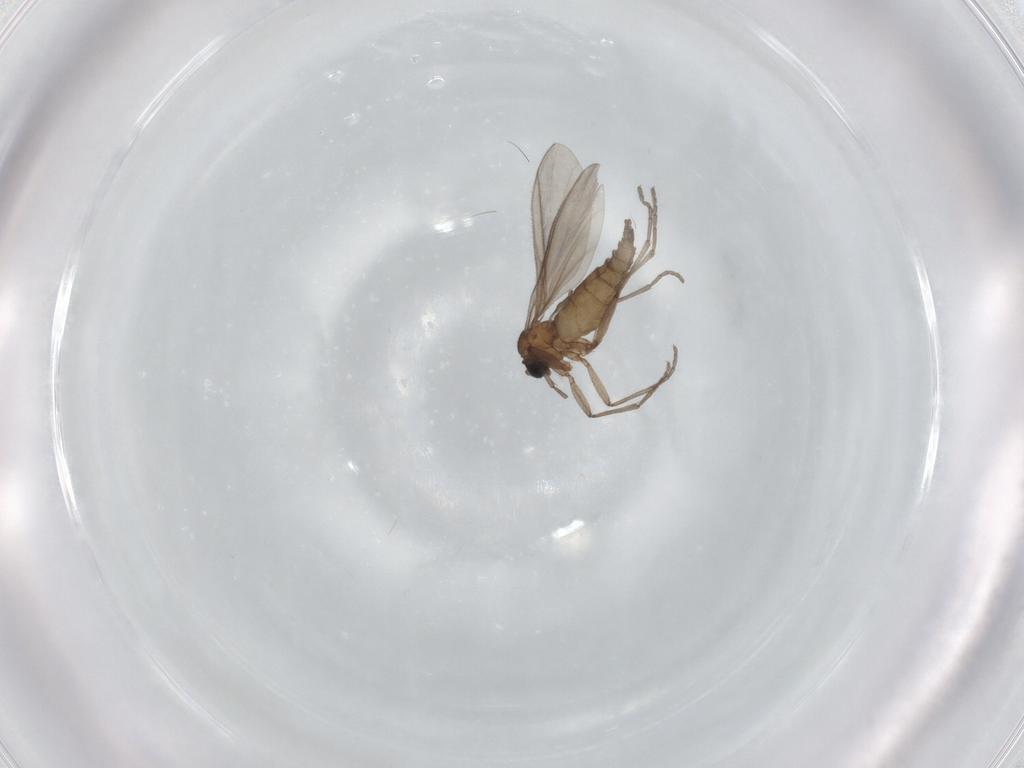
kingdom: Animalia
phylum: Arthropoda
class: Insecta
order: Diptera
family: Sciaridae
